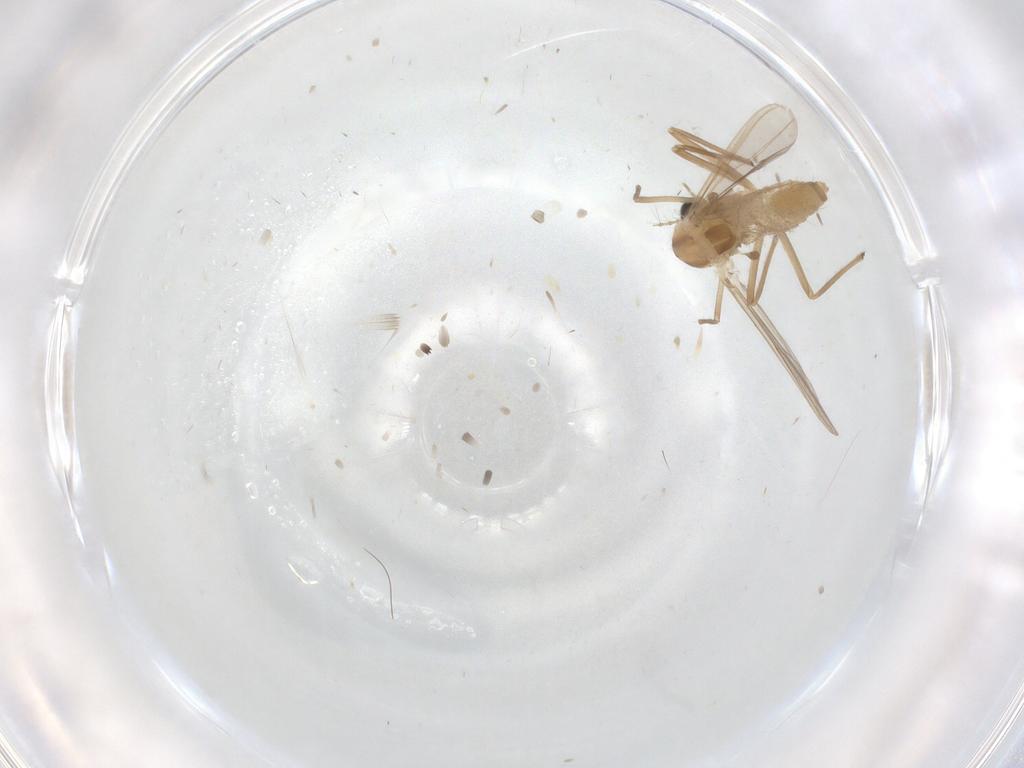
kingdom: Animalia
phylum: Arthropoda
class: Insecta
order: Diptera
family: Chironomidae
